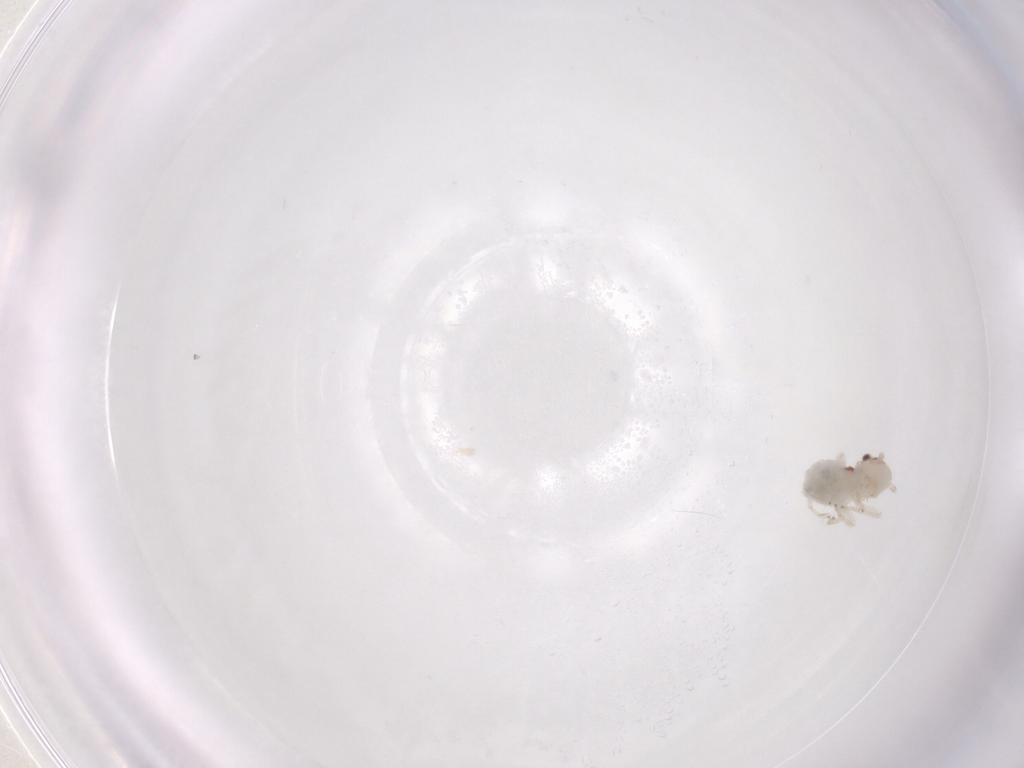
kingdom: Animalia
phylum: Arthropoda
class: Insecta
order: Psocodea
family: Amphipsocidae
